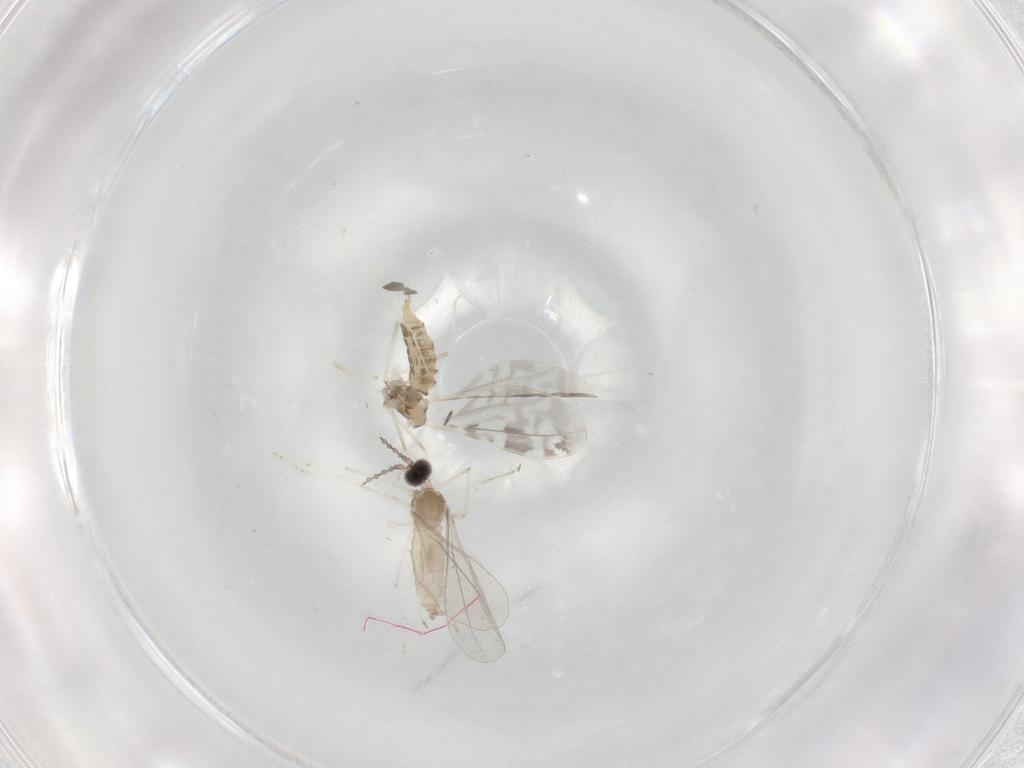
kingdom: Animalia
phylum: Arthropoda
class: Insecta
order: Diptera
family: Cecidomyiidae
